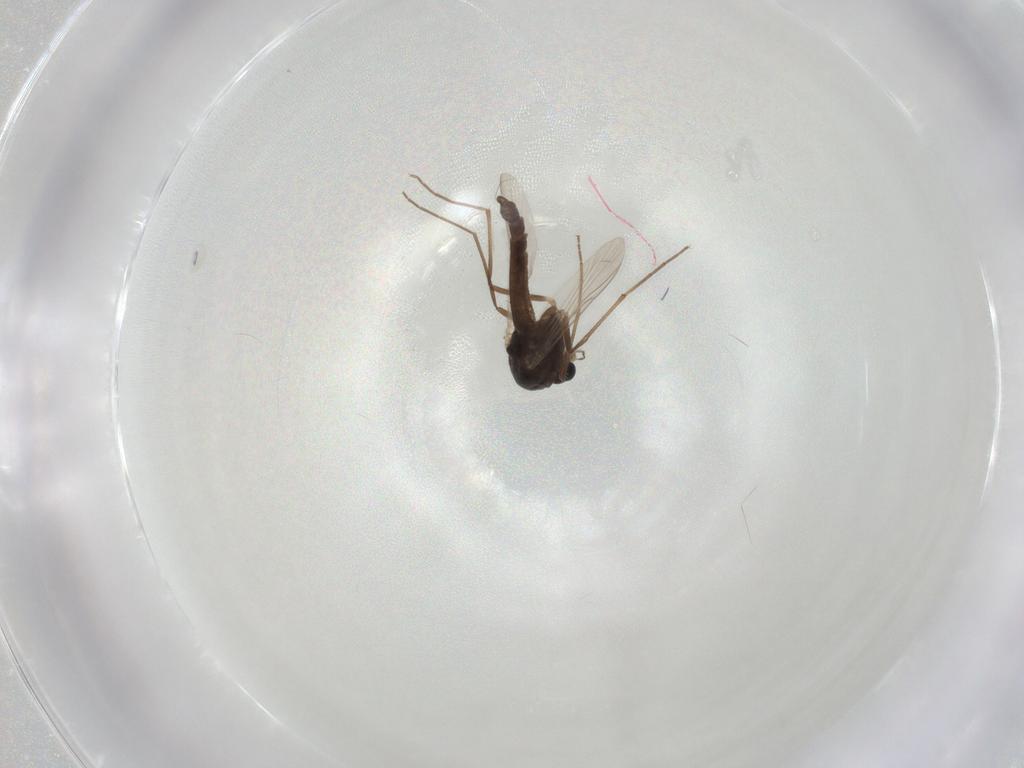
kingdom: Animalia
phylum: Arthropoda
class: Insecta
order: Diptera
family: Chironomidae
